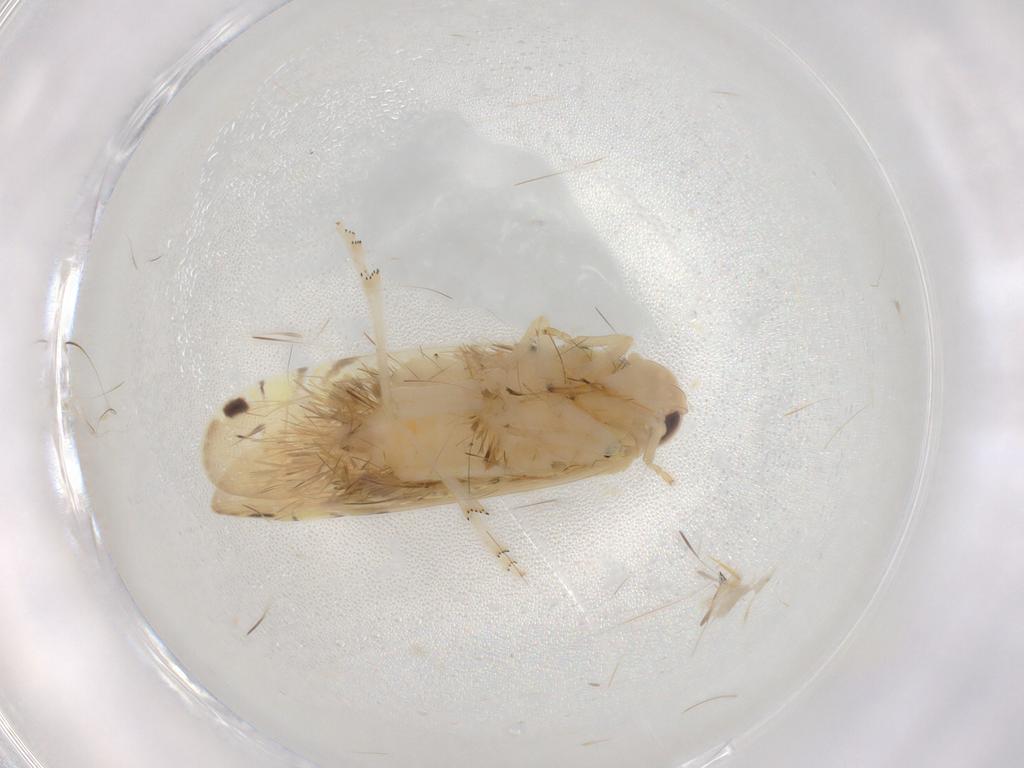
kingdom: Animalia
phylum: Arthropoda
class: Insecta
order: Hemiptera
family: Achilidae
